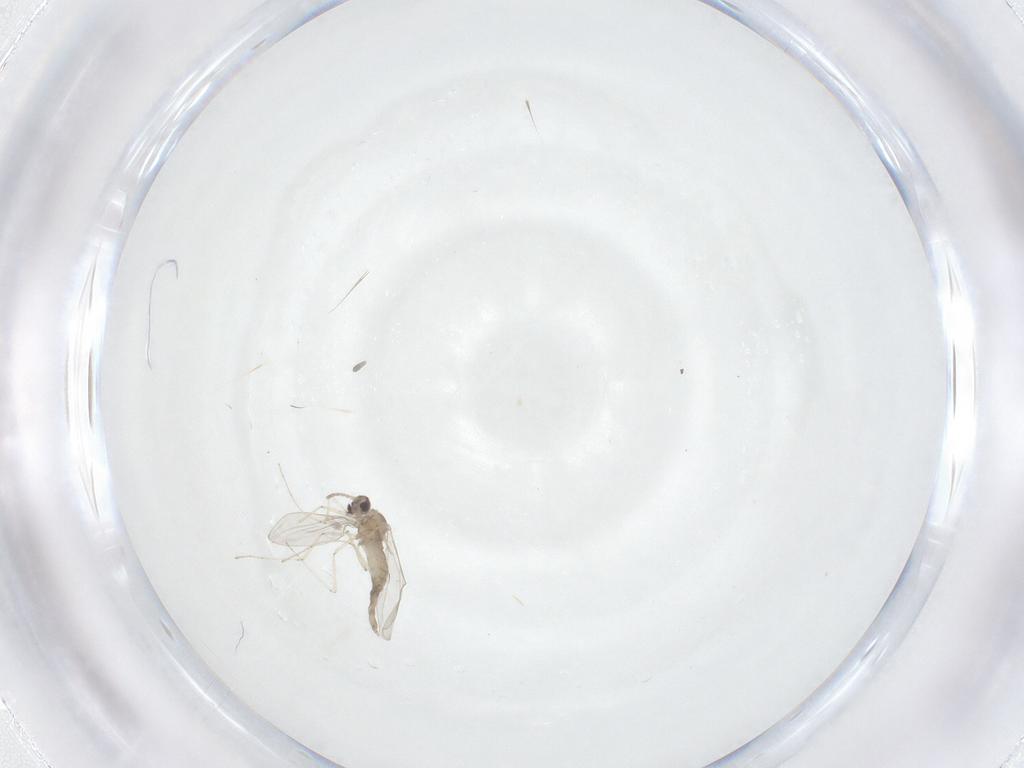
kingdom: Animalia
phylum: Arthropoda
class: Insecta
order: Diptera
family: Cecidomyiidae
